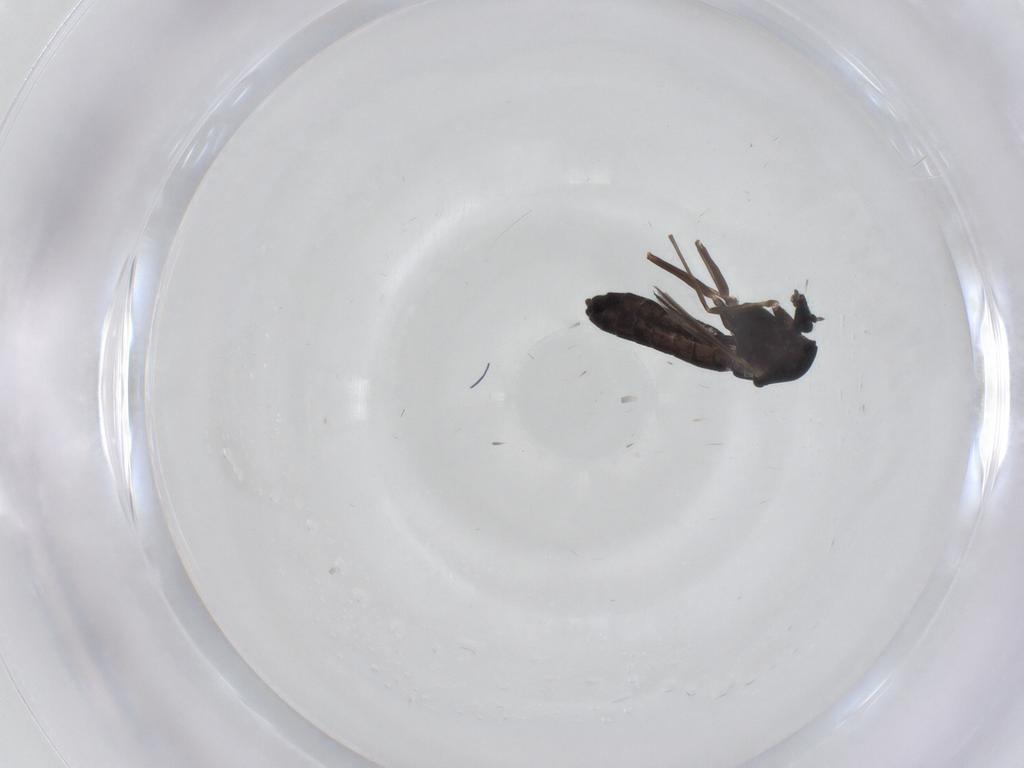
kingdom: Animalia
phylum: Arthropoda
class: Insecta
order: Diptera
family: Chironomidae
